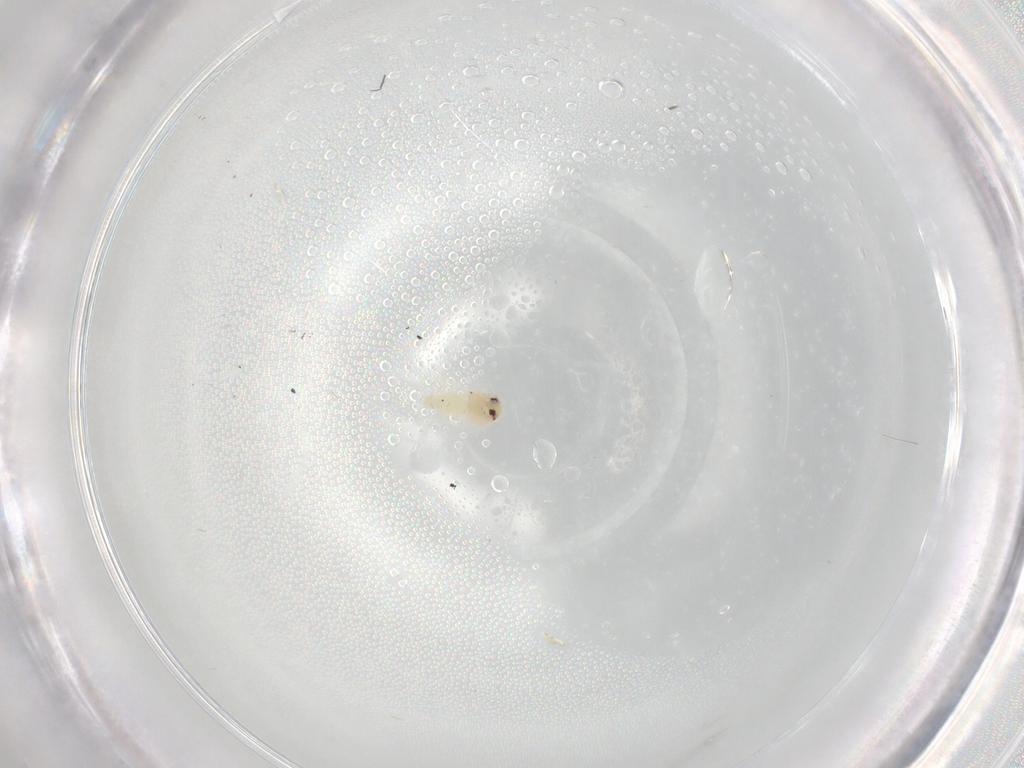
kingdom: Animalia
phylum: Arthropoda
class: Insecta
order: Hemiptera
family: Aleyrodidae
